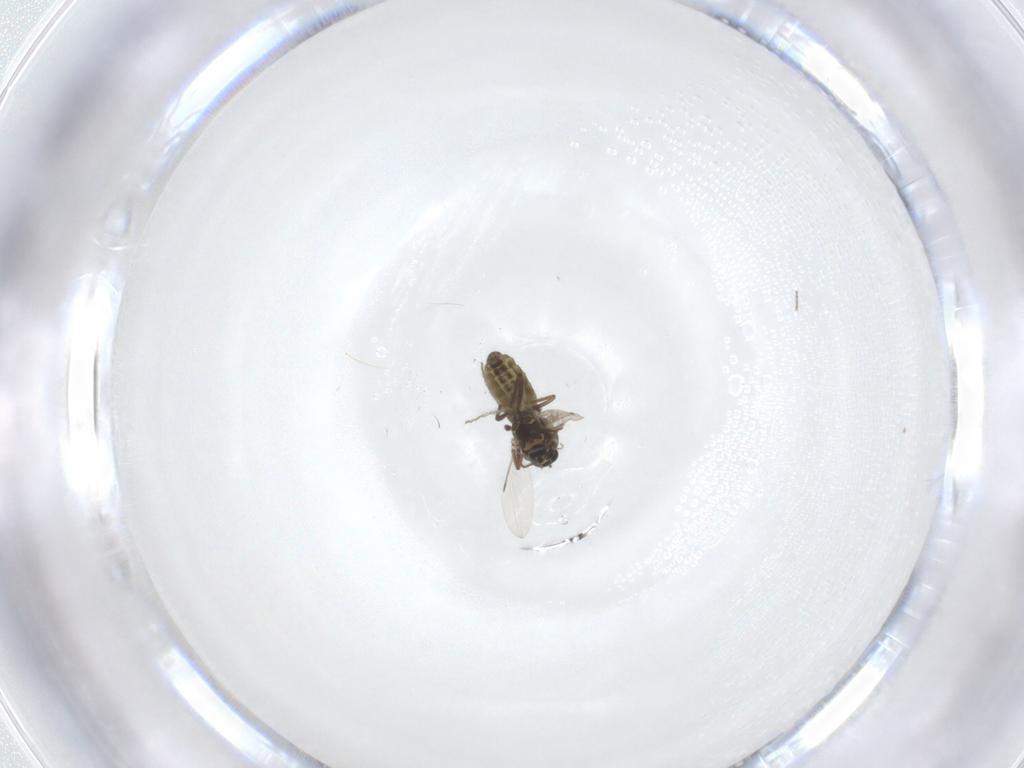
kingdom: Animalia
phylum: Arthropoda
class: Insecta
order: Diptera
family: Ceratopogonidae
